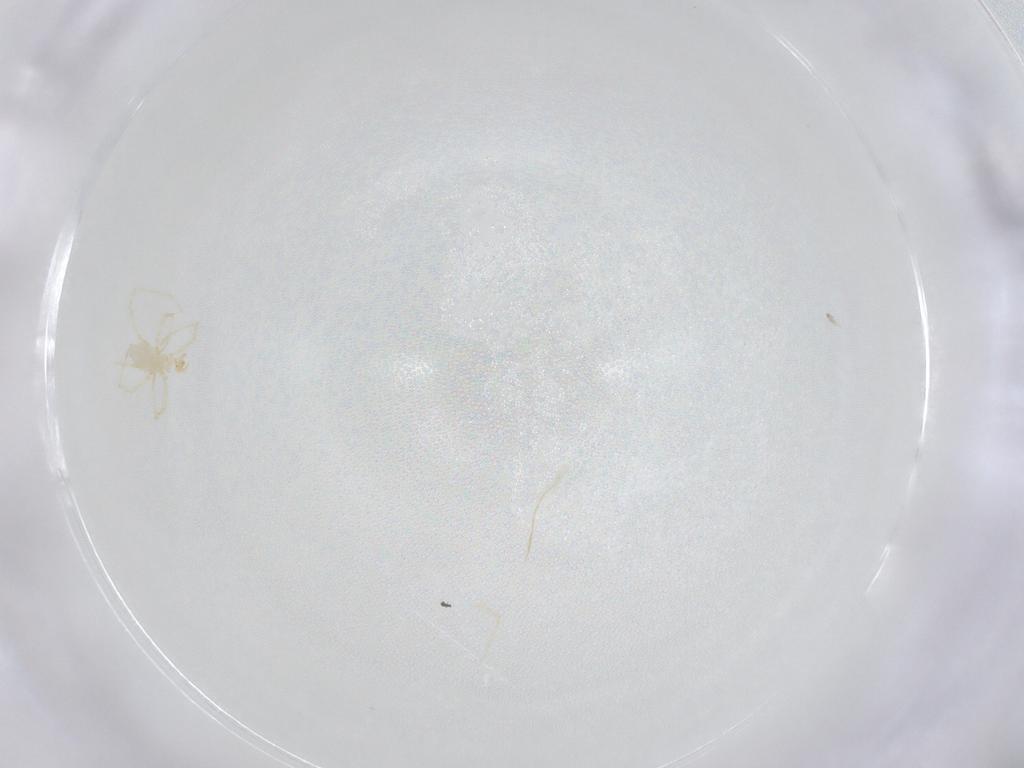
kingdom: Animalia
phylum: Arthropoda
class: Arachnida
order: Trombidiformes
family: Erythraeidae
